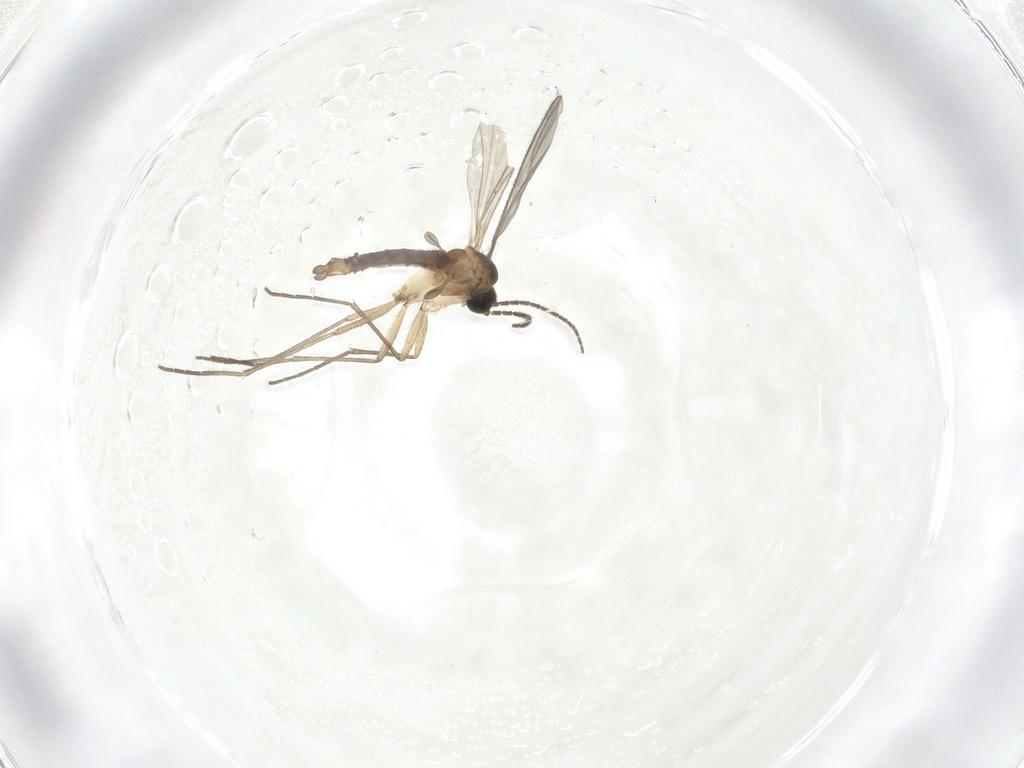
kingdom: Animalia
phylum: Arthropoda
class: Insecta
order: Diptera
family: Sciaridae
